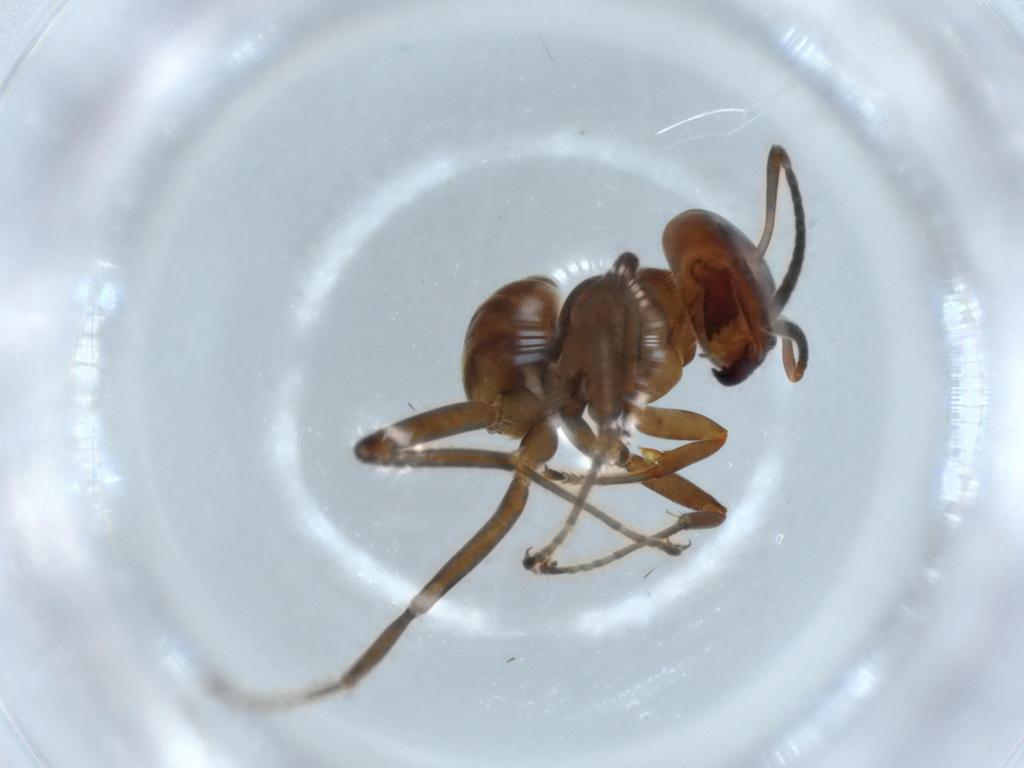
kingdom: Animalia
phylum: Arthropoda
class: Insecta
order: Hymenoptera
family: Formicidae
